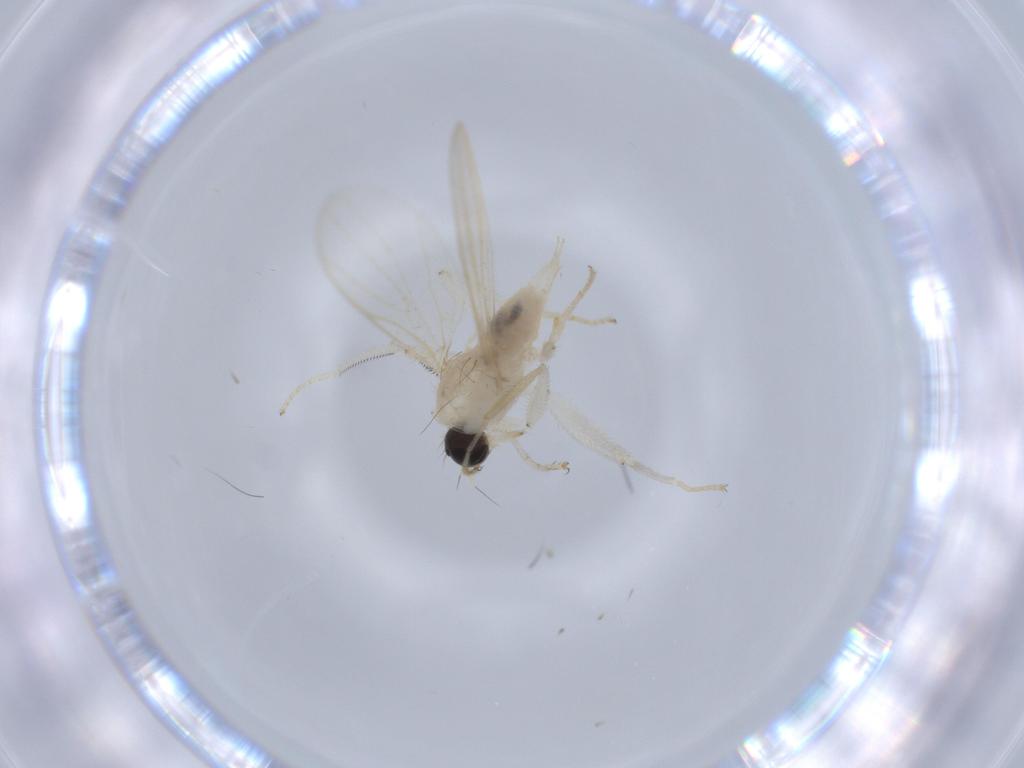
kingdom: Animalia
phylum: Arthropoda
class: Insecta
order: Diptera
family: Hybotidae
